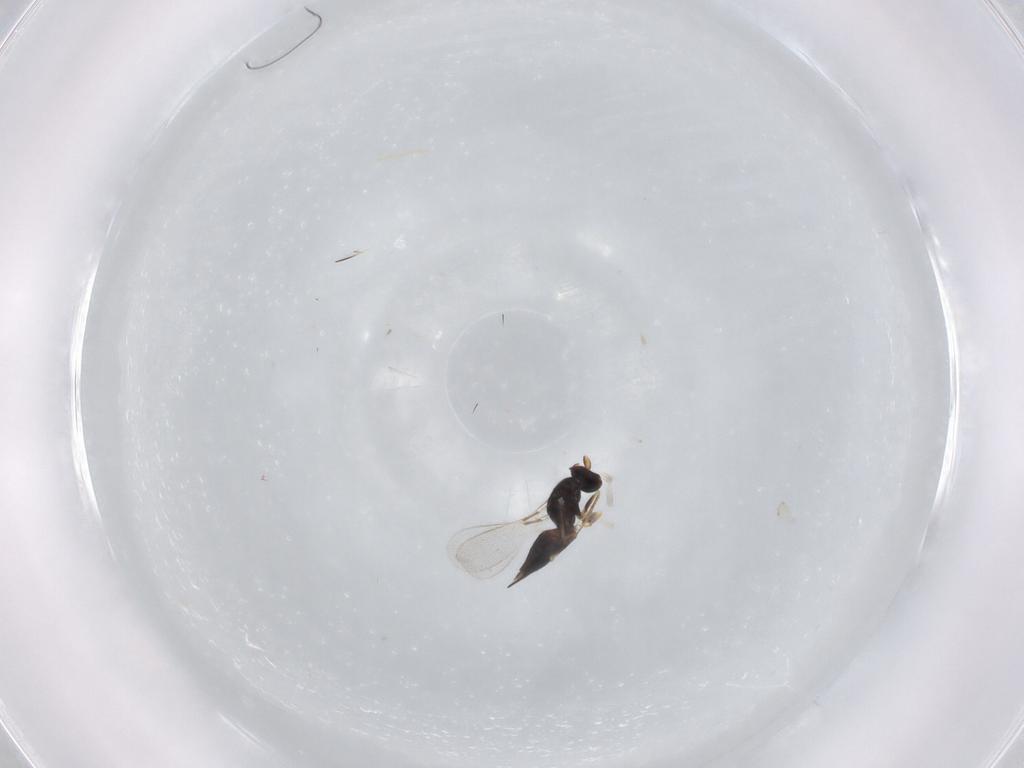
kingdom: Animalia
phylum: Arthropoda
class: Insecta
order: Hymenoptera
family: Mymaridae
